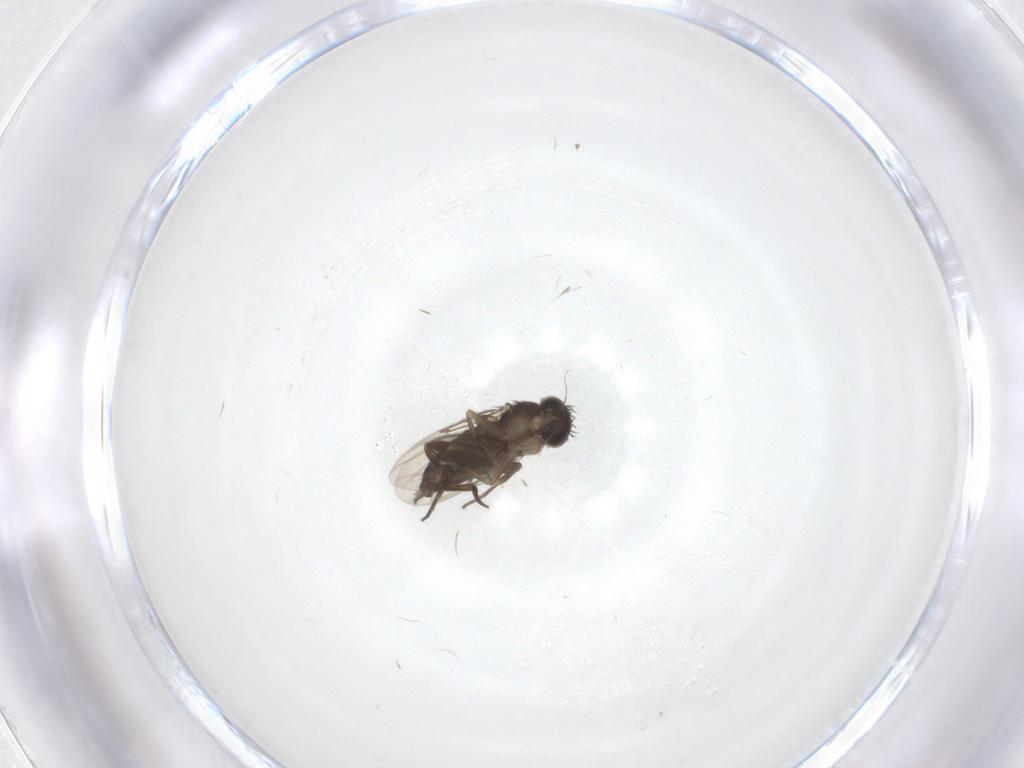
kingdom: Animalia
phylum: Arthropoda
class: Insecta
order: Diptera
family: Phoridae
